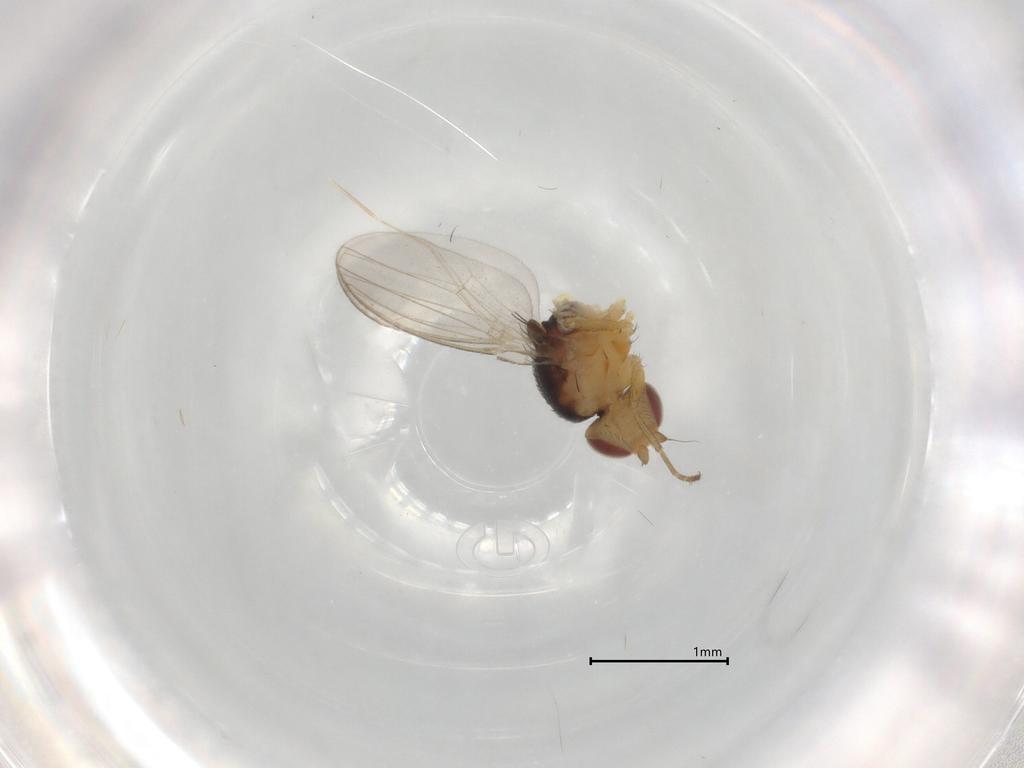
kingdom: Animalia
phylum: Arthropoda
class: Insecta
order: Diptera
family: Chloropidae
